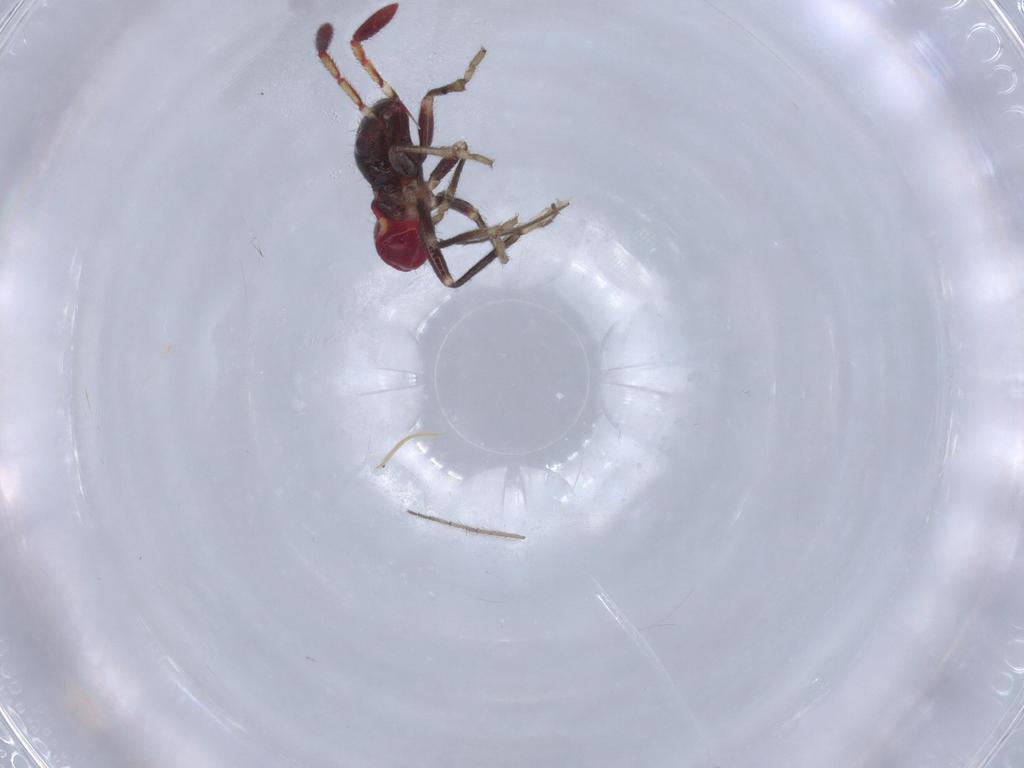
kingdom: Animalia
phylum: Arthropoda
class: Insecta
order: Hemiptera
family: Rhyparochromidae
